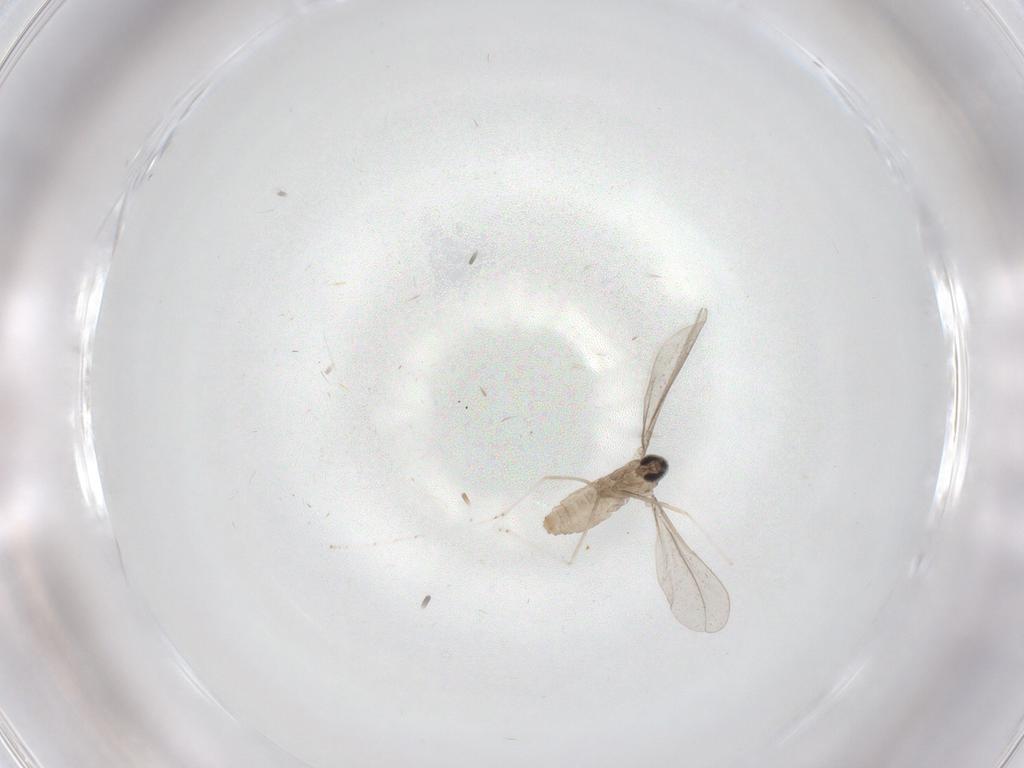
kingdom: Animalia
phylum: Arthropoda
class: Insecta
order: Diptera
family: Cecidomyiidae
